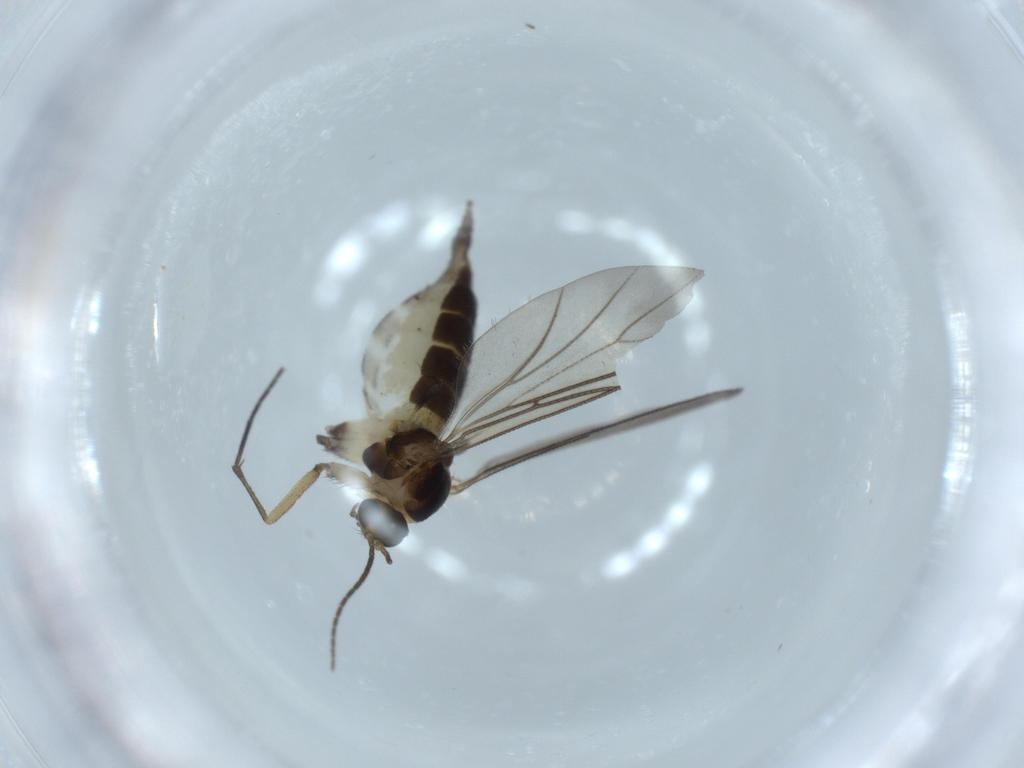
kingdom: Animalia
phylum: Arthropoda
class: Insecta
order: Diptera
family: Sciaridae
